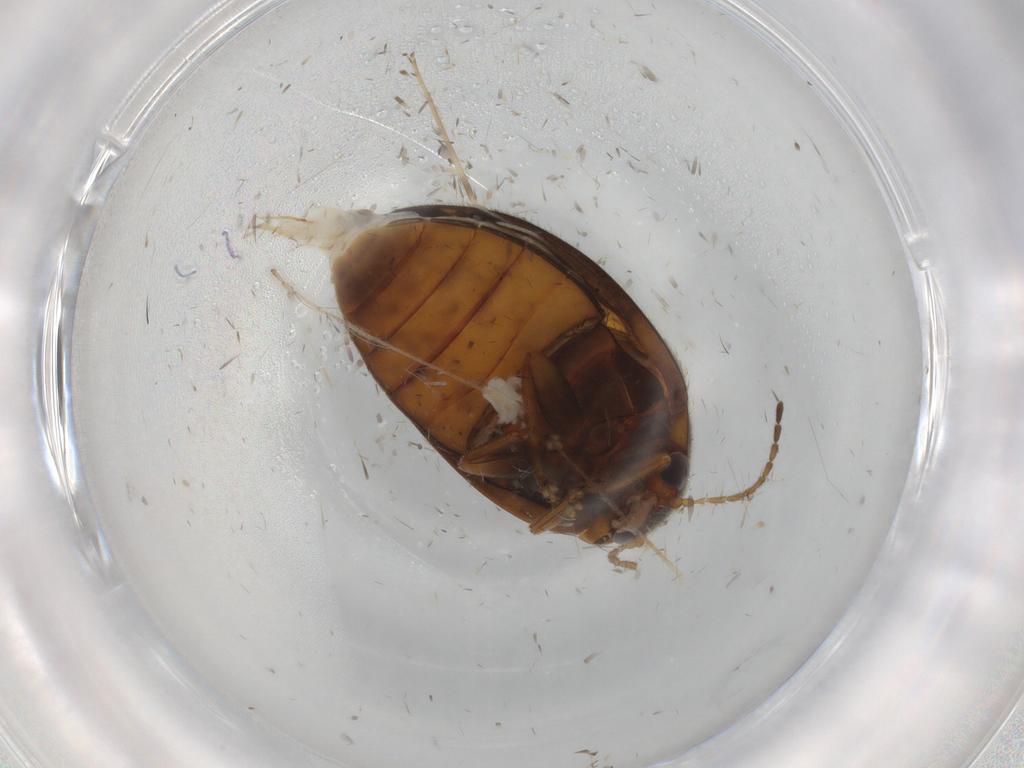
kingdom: Animalia
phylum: Arthropoda
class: Insecta
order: Coleoptera
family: Scirtidae
